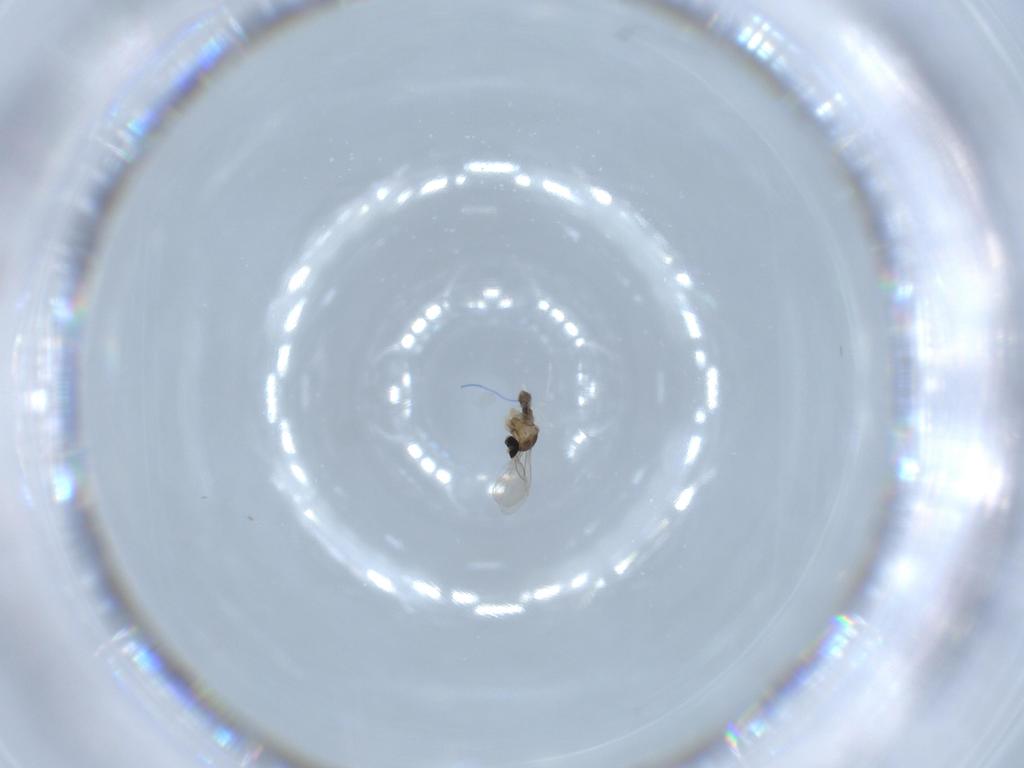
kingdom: Animalia
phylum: Arthropoda
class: Insecta
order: Diptera
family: Cecidomyiidae
